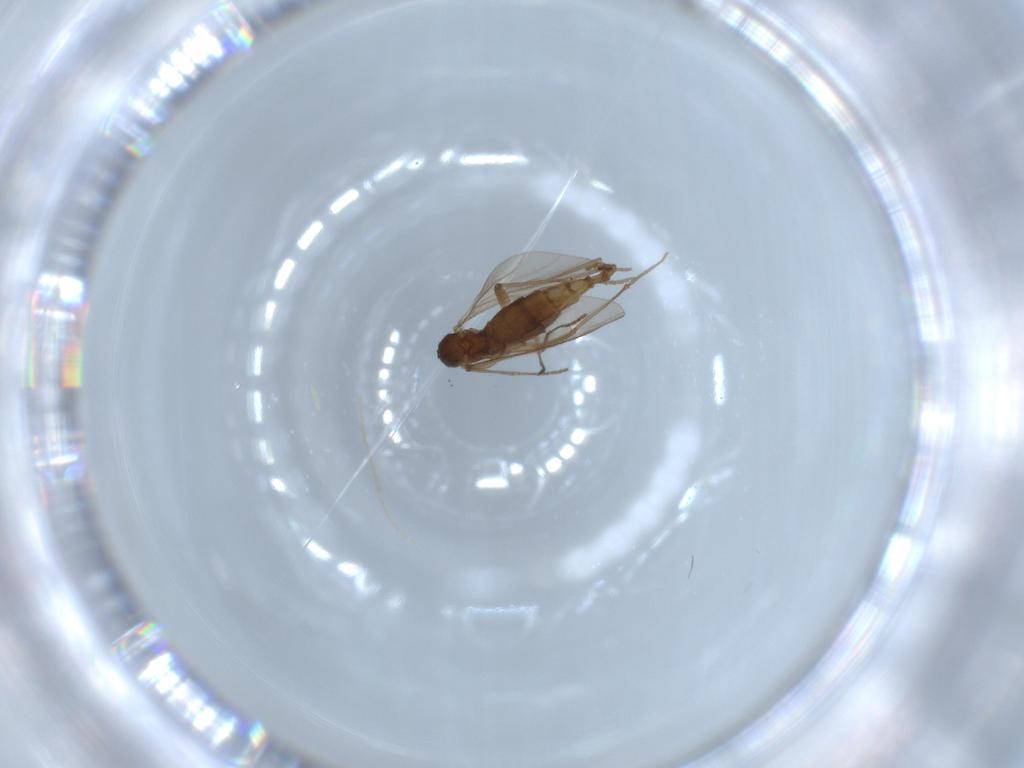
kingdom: Animalia
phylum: Arthropoda
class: Insecta
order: Diptera
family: Sciaridae
